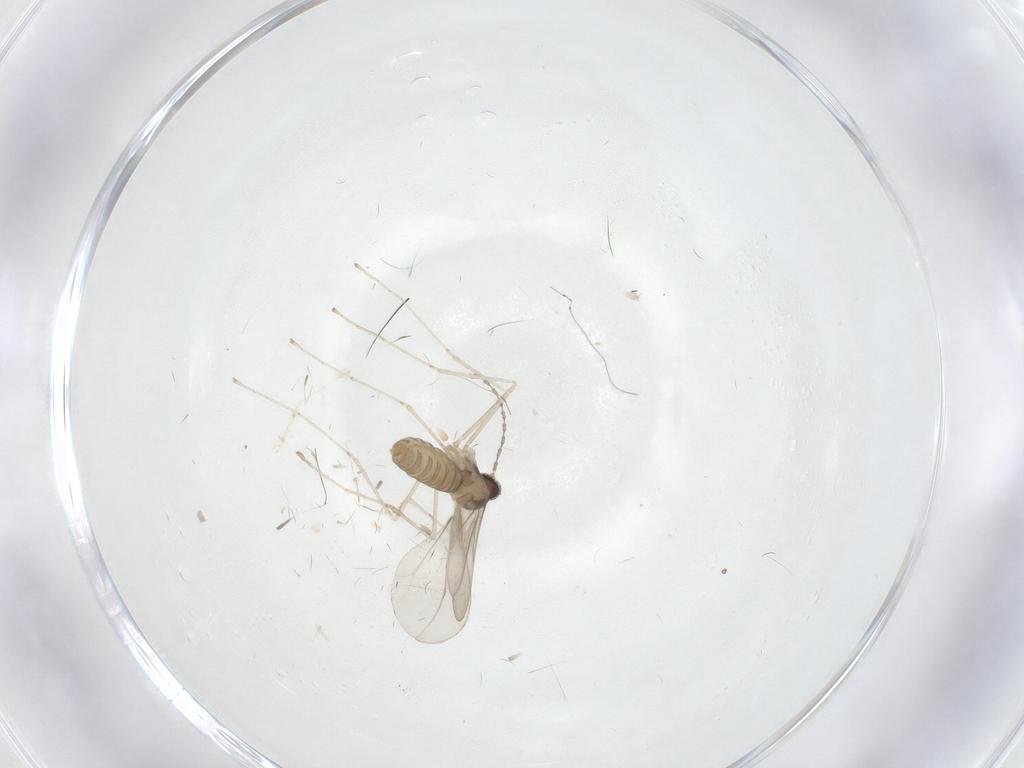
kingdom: Animalia
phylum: Arthropoda
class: Insecta
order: Diptera
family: Cecidomyiidae
